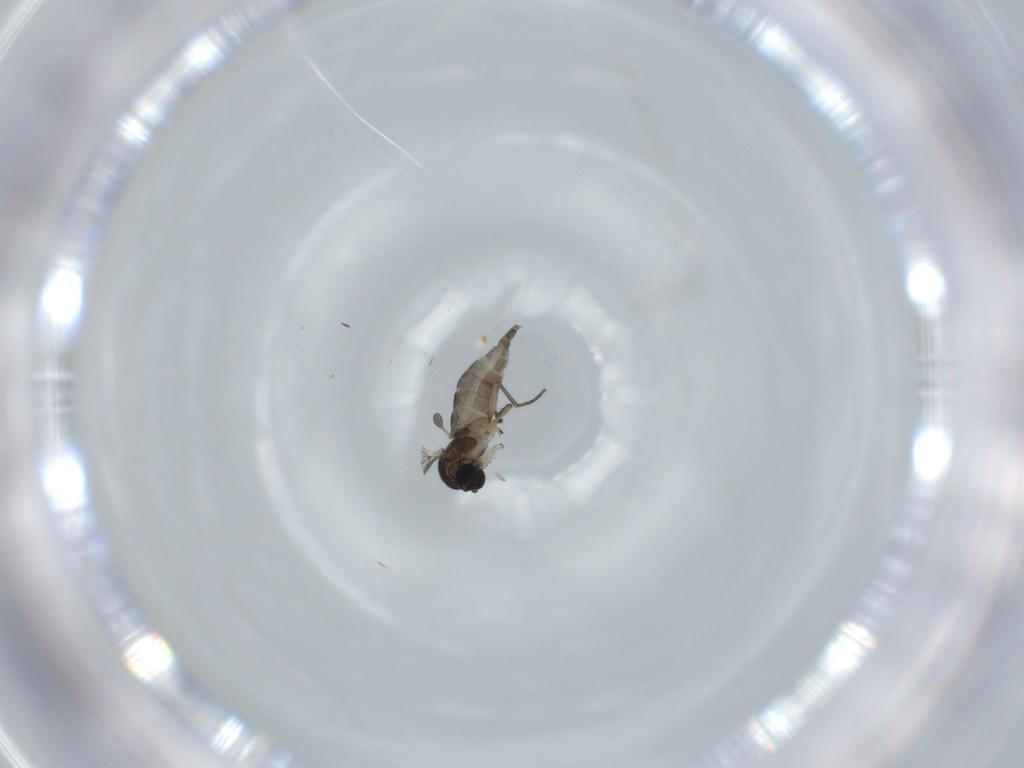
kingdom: Animalia
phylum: Arthropoda
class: Insecta
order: Diptera
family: Sciaridae
